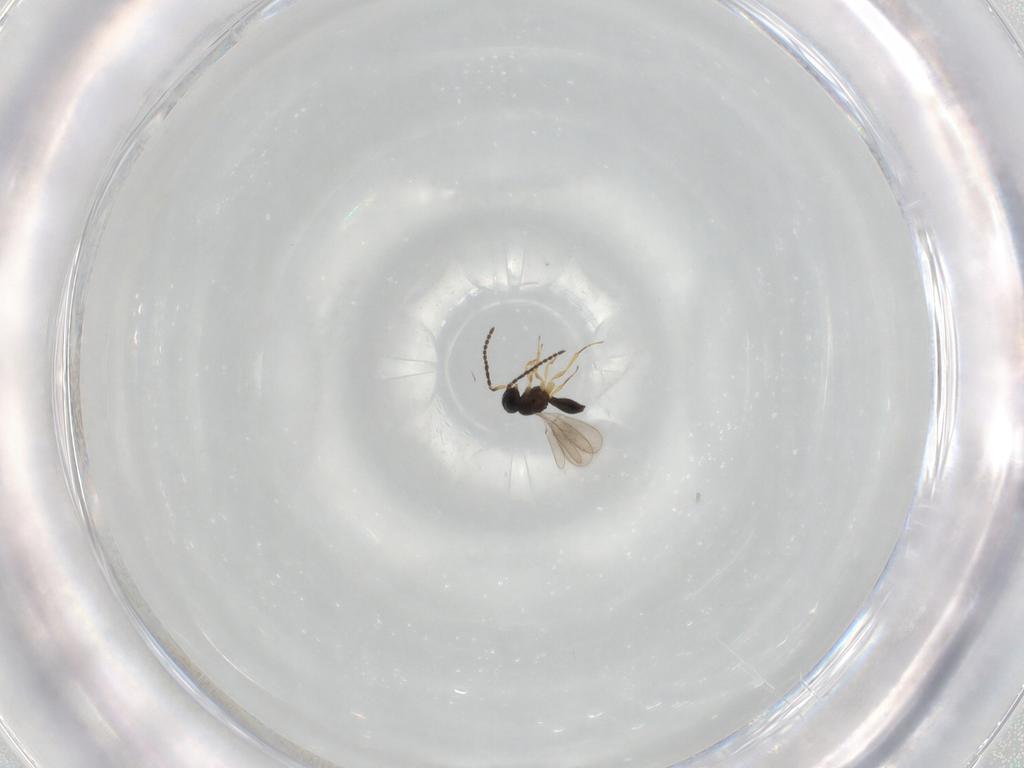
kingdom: Animalia
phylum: Arthropoda
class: Insecta
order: Hymenoptera
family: Scelionidae
